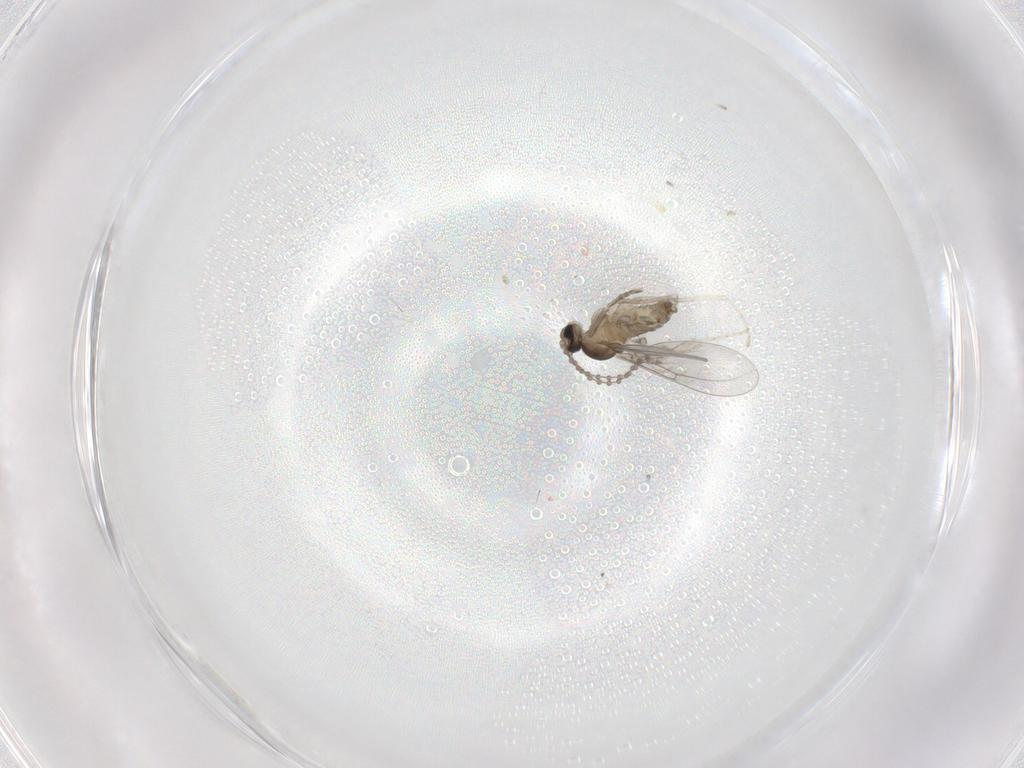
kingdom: Animalia
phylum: Arthropoda
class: Insecta
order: Diptera
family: Cecidomyiidae
